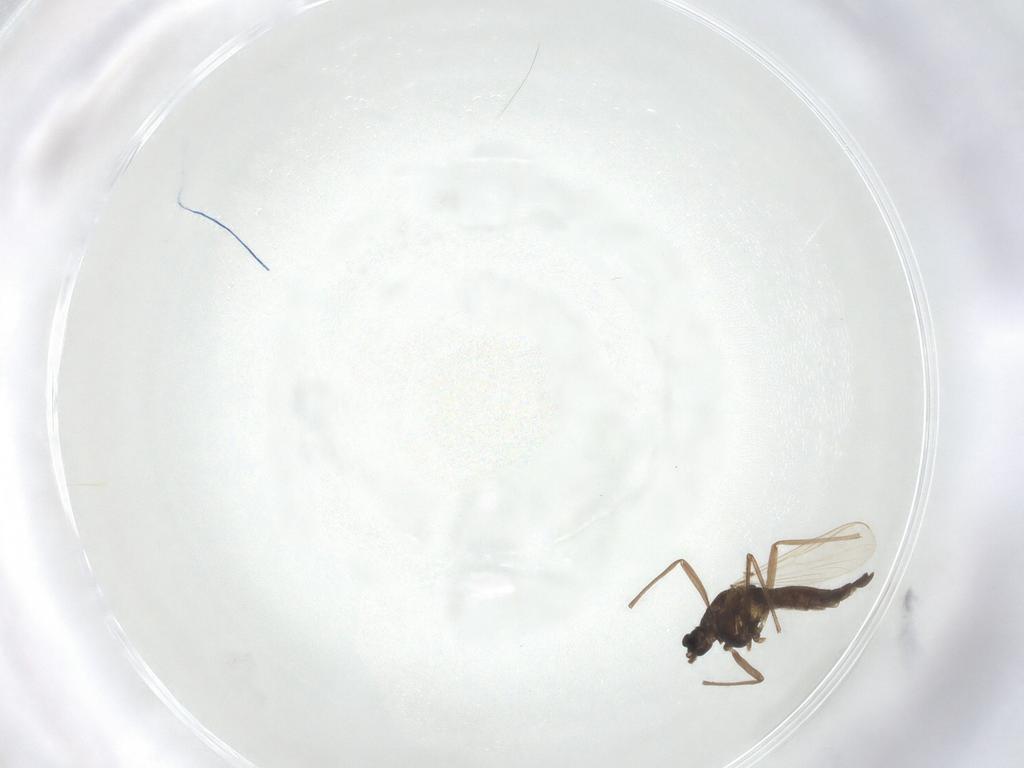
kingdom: Animalia
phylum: Arthropoda
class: Insecta
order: Diptera
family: Chironomidae
